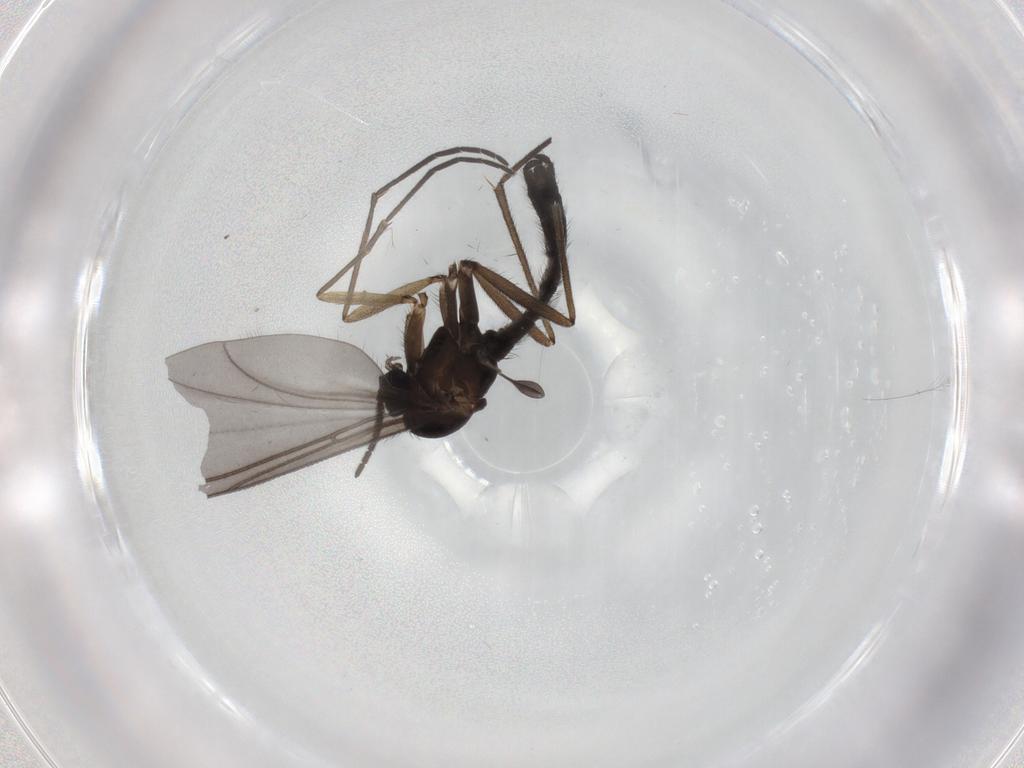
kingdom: Animalia
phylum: Arthropoda
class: Insecta
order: Diptera
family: Sciaridae
